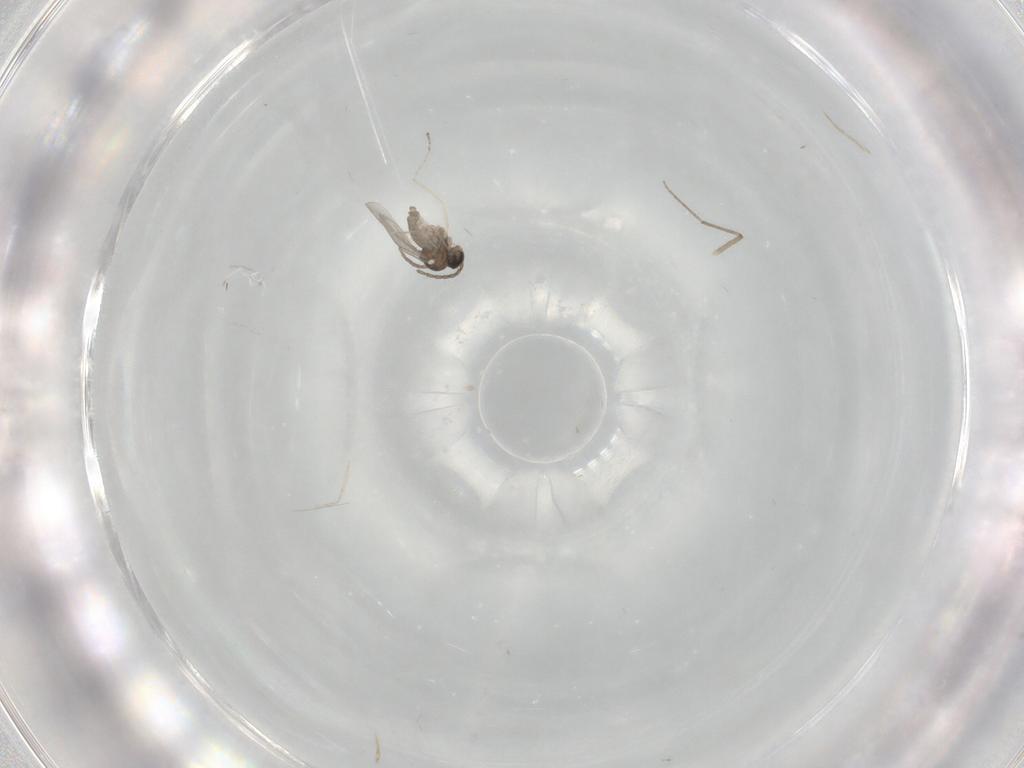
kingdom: Animalia
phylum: Arthropoda
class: Insecta
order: Diptera
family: Cecidomyiidae
